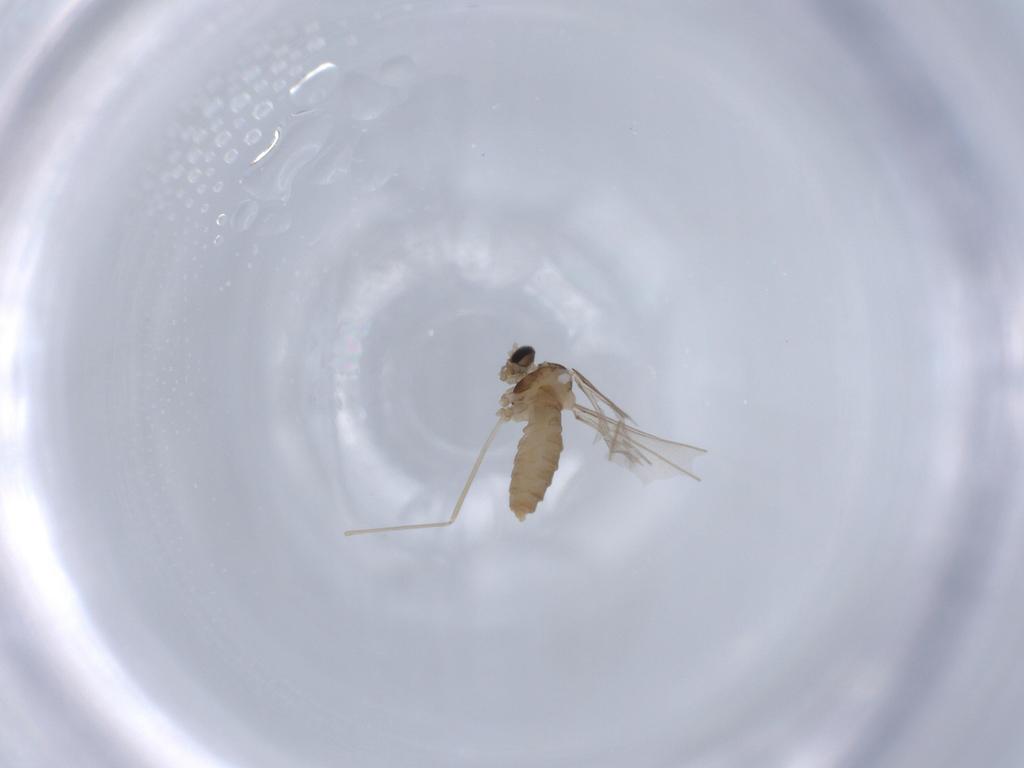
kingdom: Animalia
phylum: Arthropoda
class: Insecta
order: Diptera
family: Cecidomyiidae
